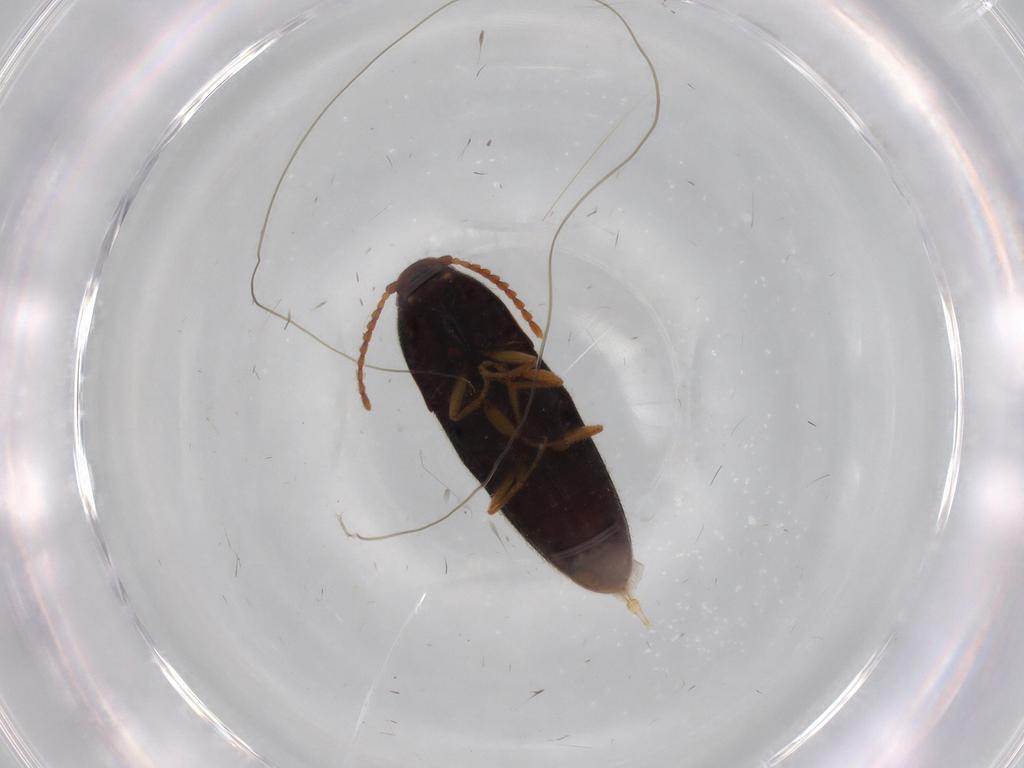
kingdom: Animalia
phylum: Arthropoda
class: Insecta
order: Coleoptera
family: Elateridae
